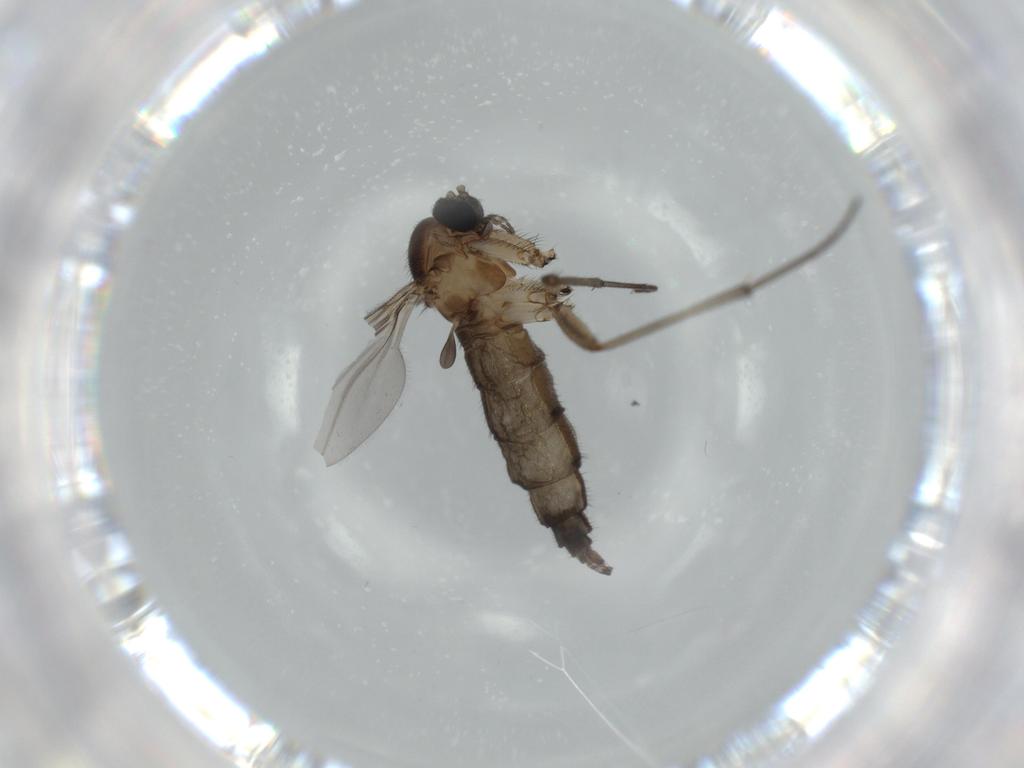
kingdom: Animalia
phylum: Arthropoda
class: Insecta
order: Diptera
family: Sciaridae
